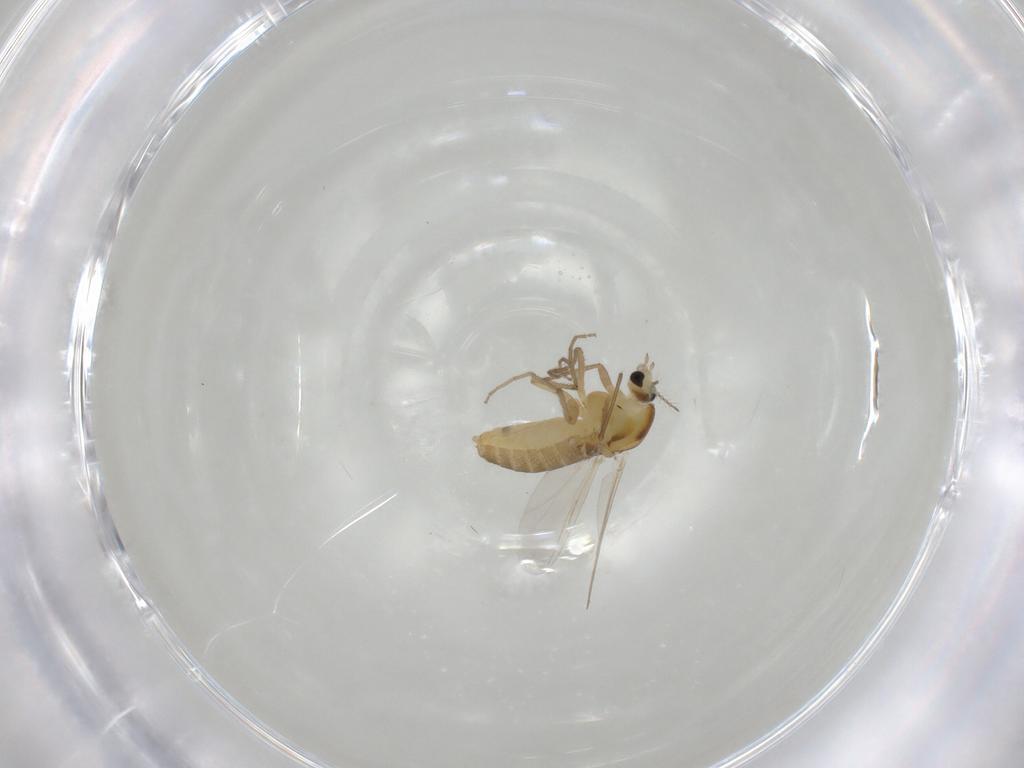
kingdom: Animalia
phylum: Arthropoda
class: Insecta
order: Diptera
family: Chironomidae
